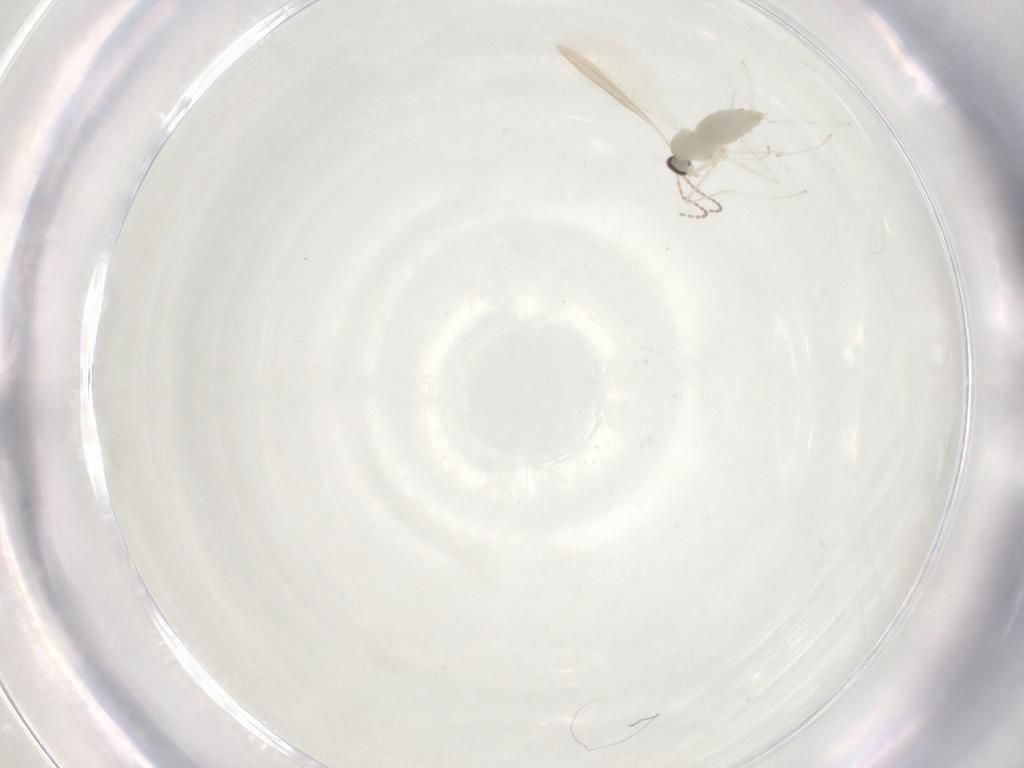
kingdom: Animalia
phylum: Arthropoda
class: Insecta
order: Diptera
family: Cecidomyiidae
